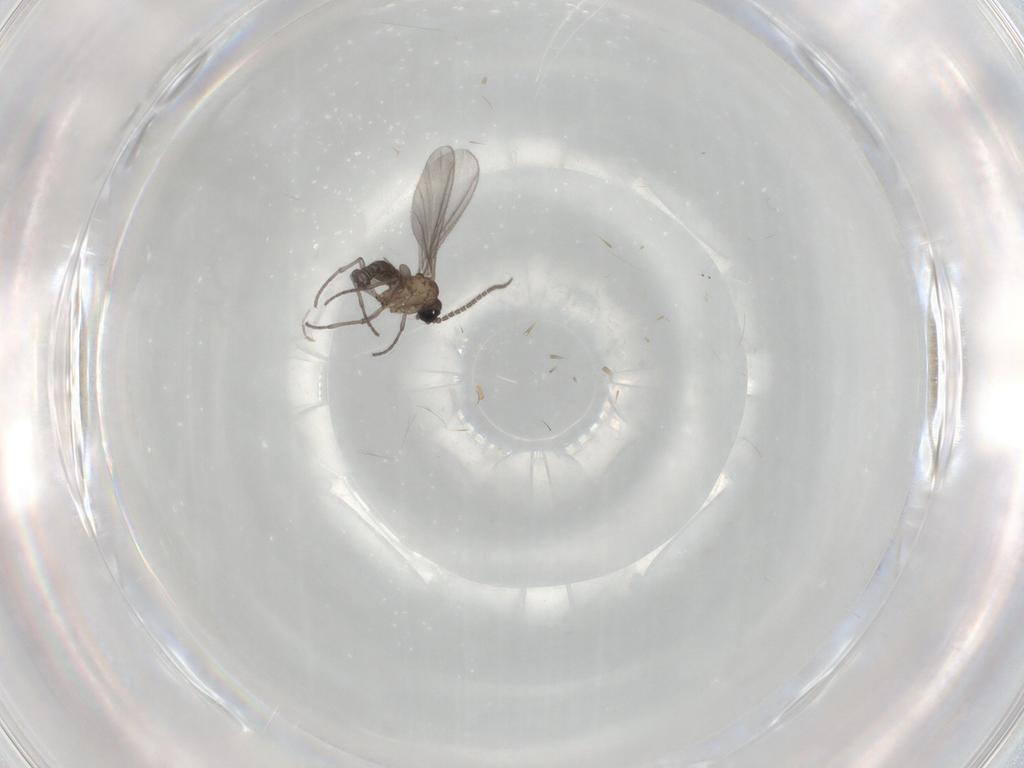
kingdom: Animalia
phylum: Arthropoda
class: Insecta
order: Diptera
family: Sciaridae
